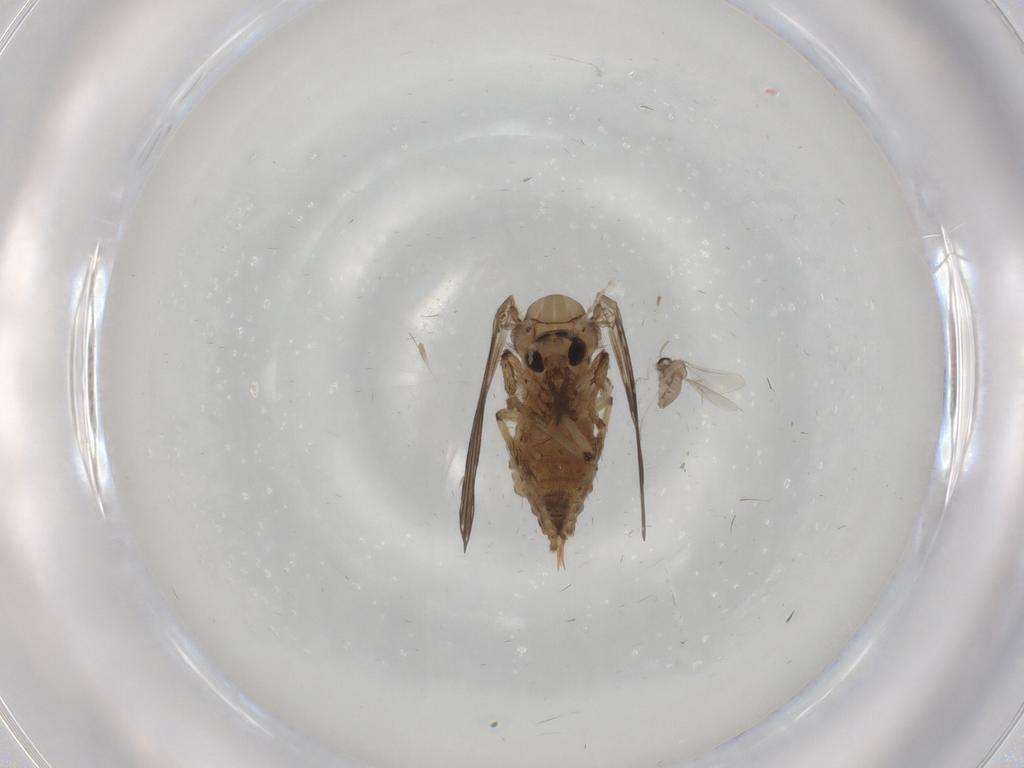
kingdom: Animalia
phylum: Arthropoda
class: Insecta
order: Diptera
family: Psychodidae
